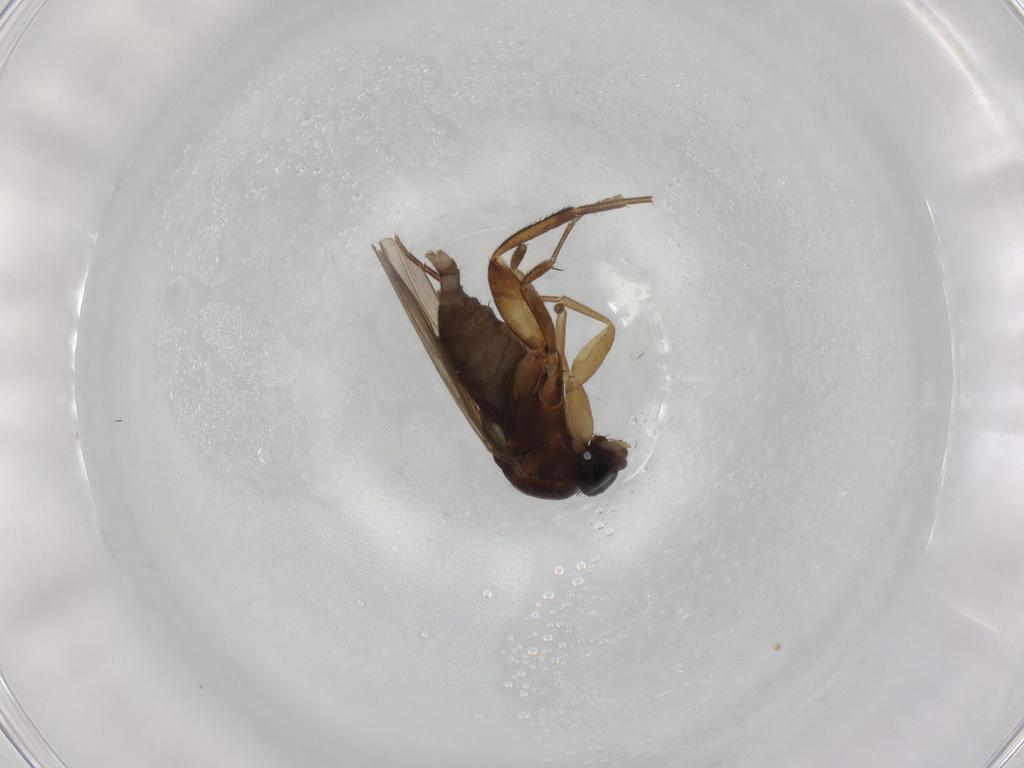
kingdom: Animalia
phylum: Arthropoda
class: Insecta
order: Diptera
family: Phoridae
